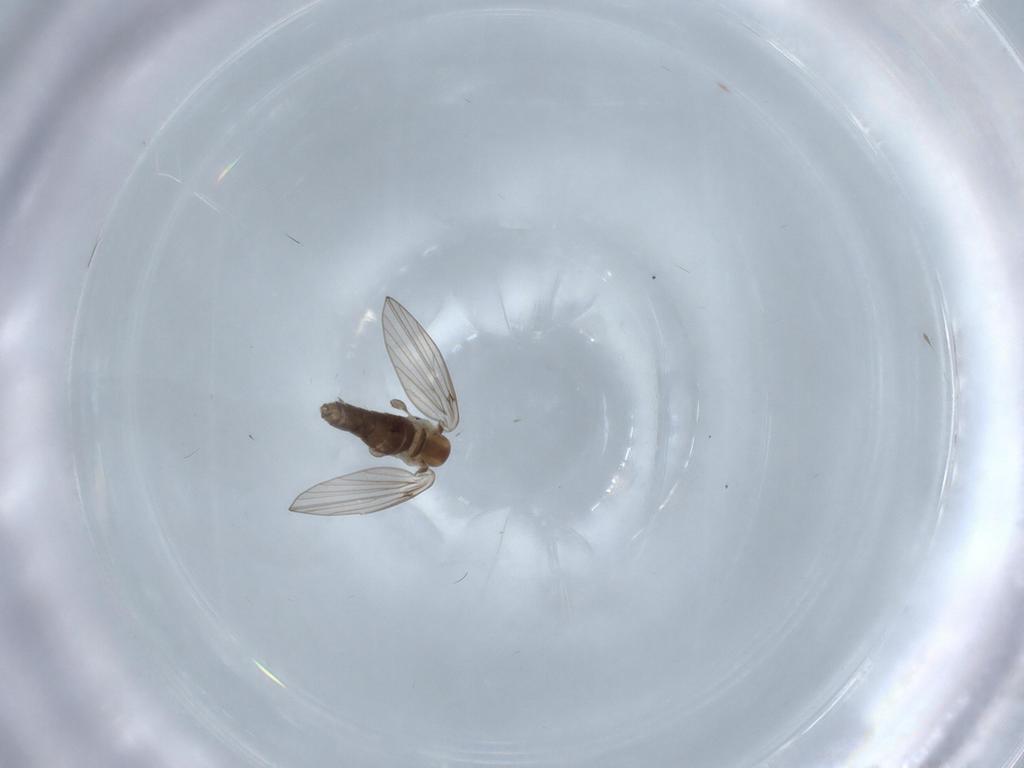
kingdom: Animalia
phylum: Arthropoda
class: Insecta
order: Diptera
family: Psychodidae
